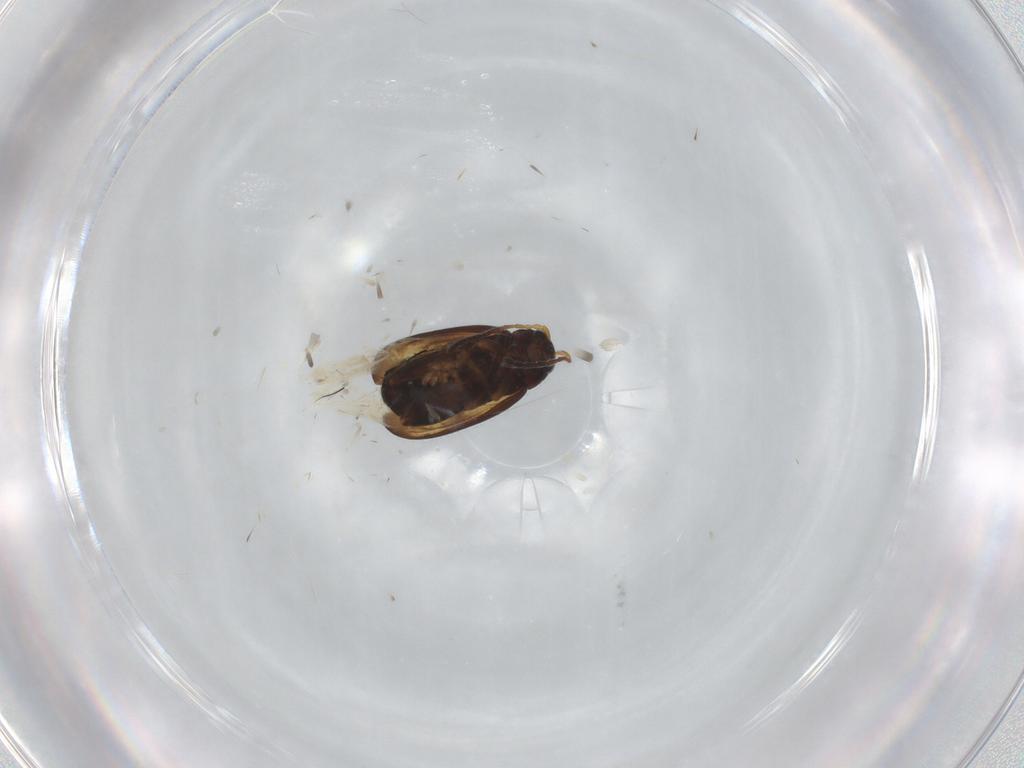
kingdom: Animalia
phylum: Arthropoda
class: Insecta
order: Coleoptera
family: Chrysomelidae
